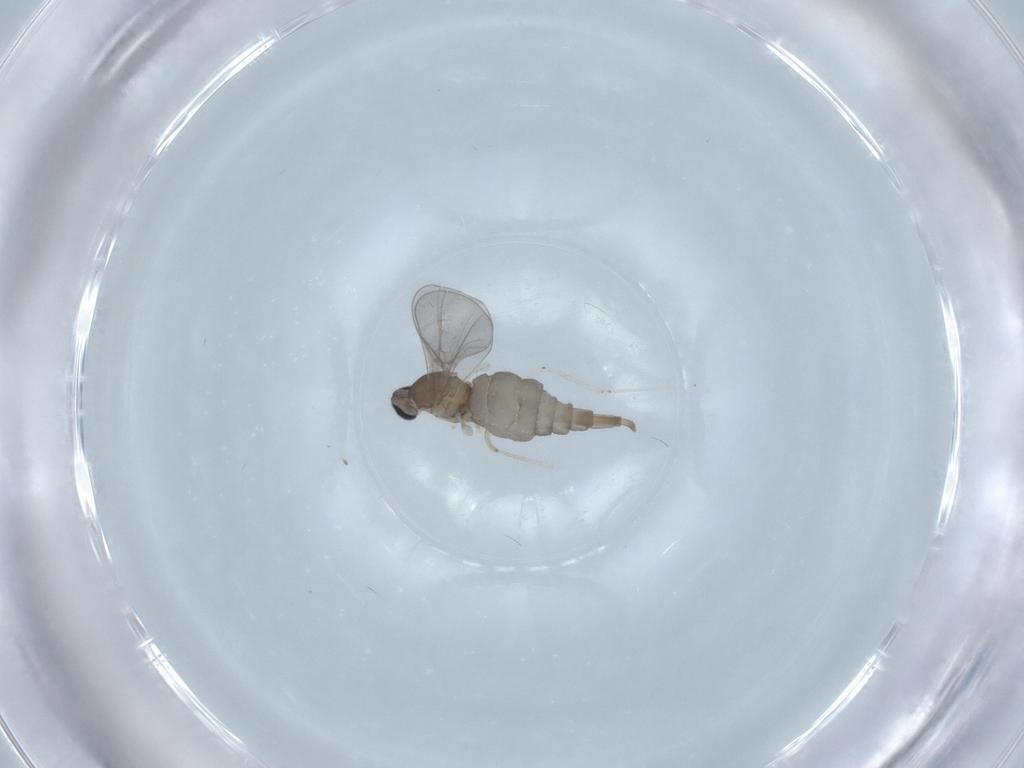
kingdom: Animalia
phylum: Arthropoda
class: Insecta
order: Diptera
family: Cecidomyiidae
